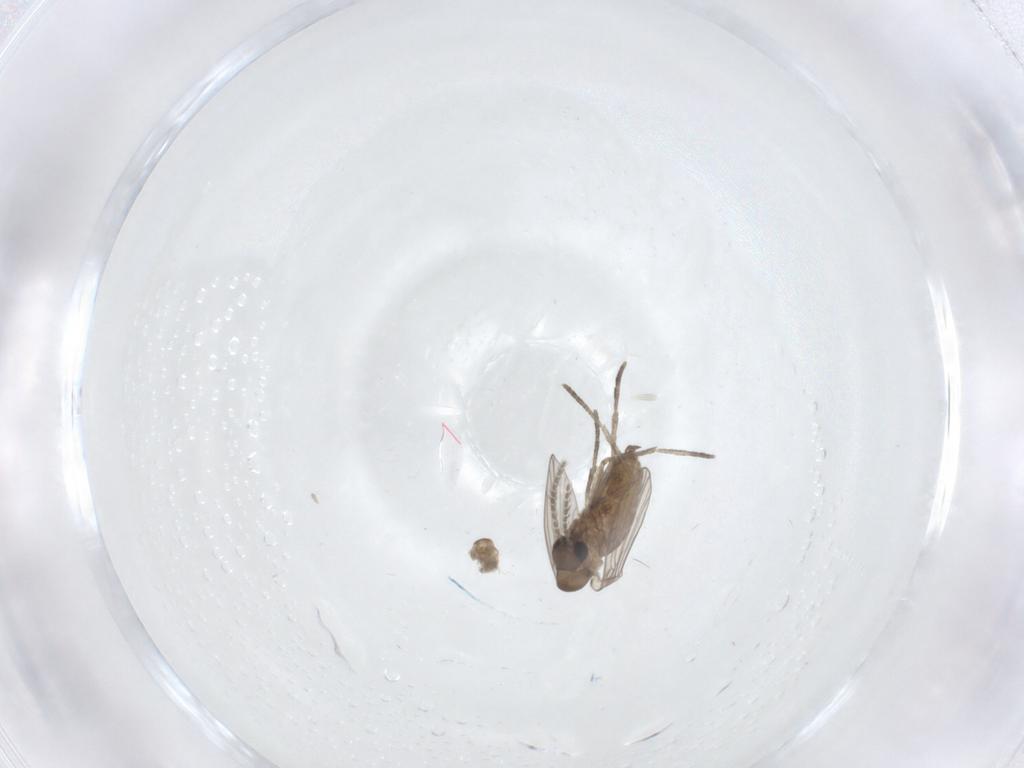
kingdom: Animalia
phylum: Arthropoda
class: Insecta
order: Diptera
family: Cecidomyiidae
